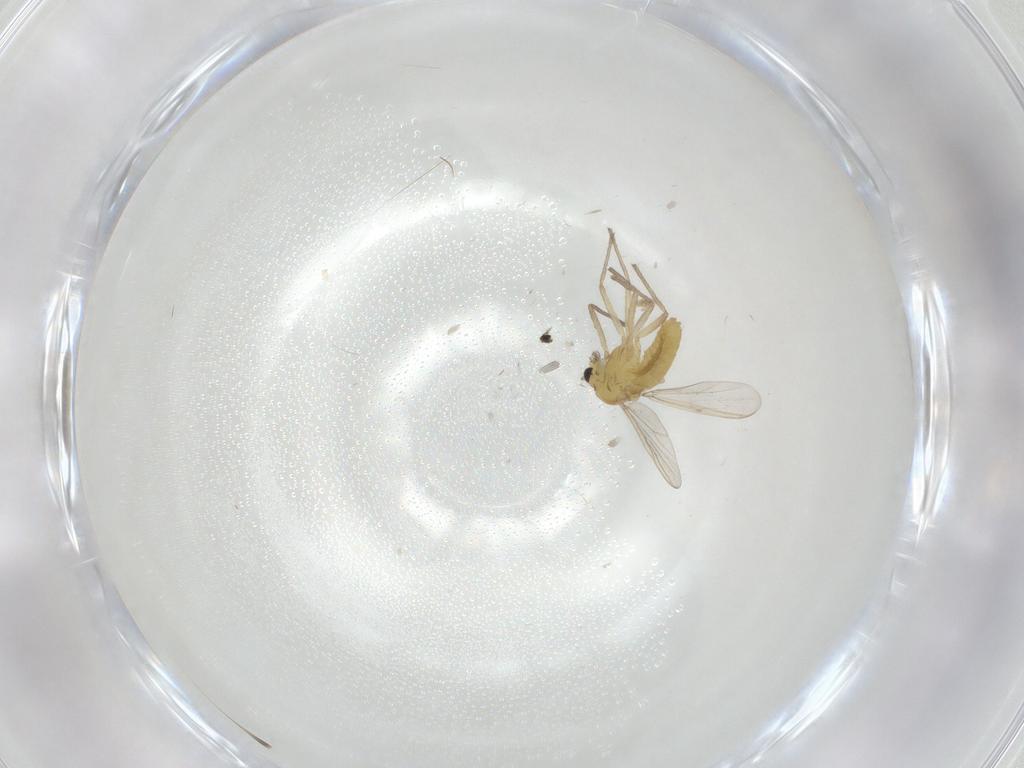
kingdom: Animalia
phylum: Arthropoda
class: Insecta
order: Diptera
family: Chironomidae
